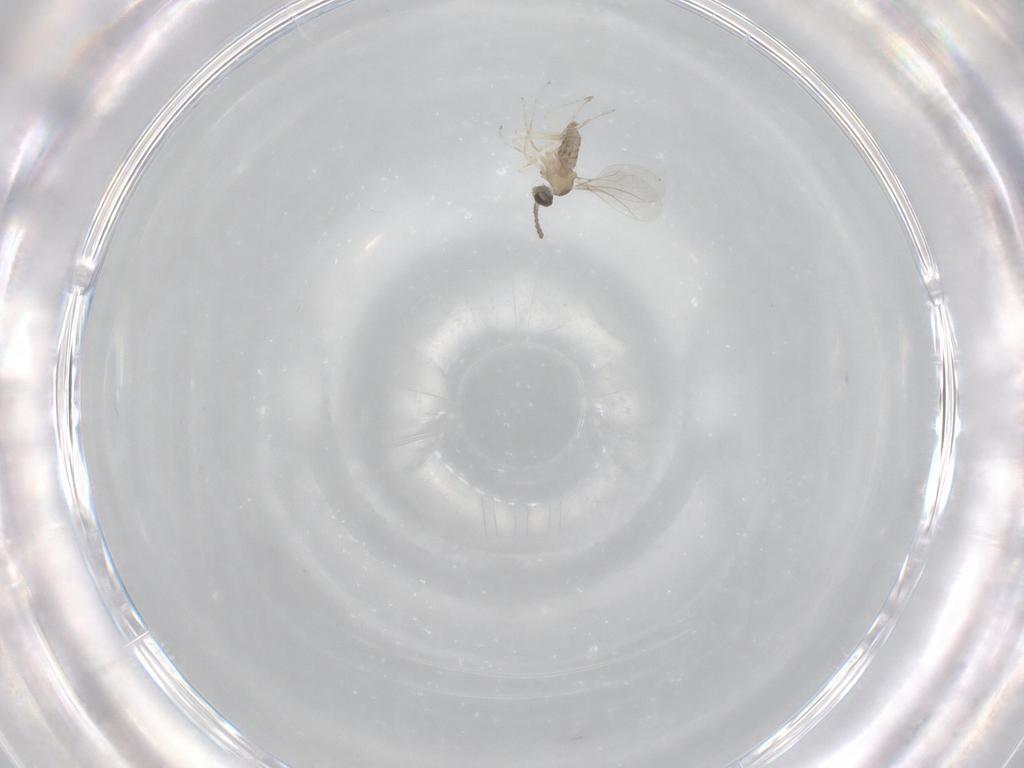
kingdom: Animalia
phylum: Arthropoda
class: Insecta
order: Diptera
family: Cecidomyiidae
